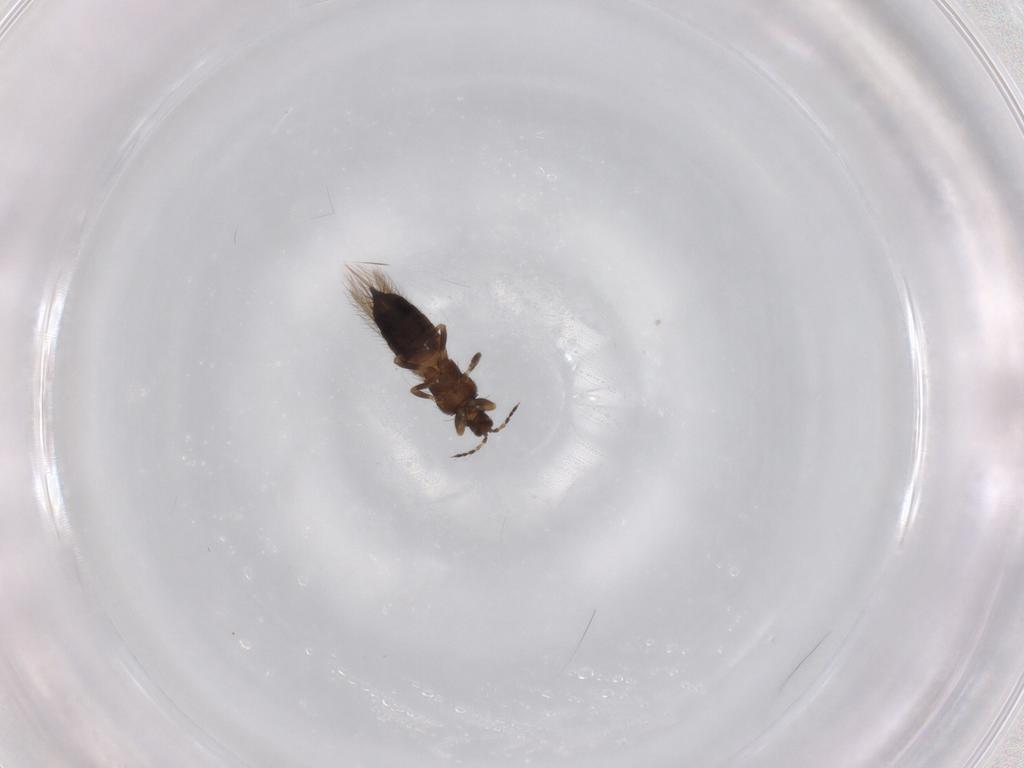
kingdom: Animalia
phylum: Arthropoda
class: Insecta
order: Thysanoptera
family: Thripidae
